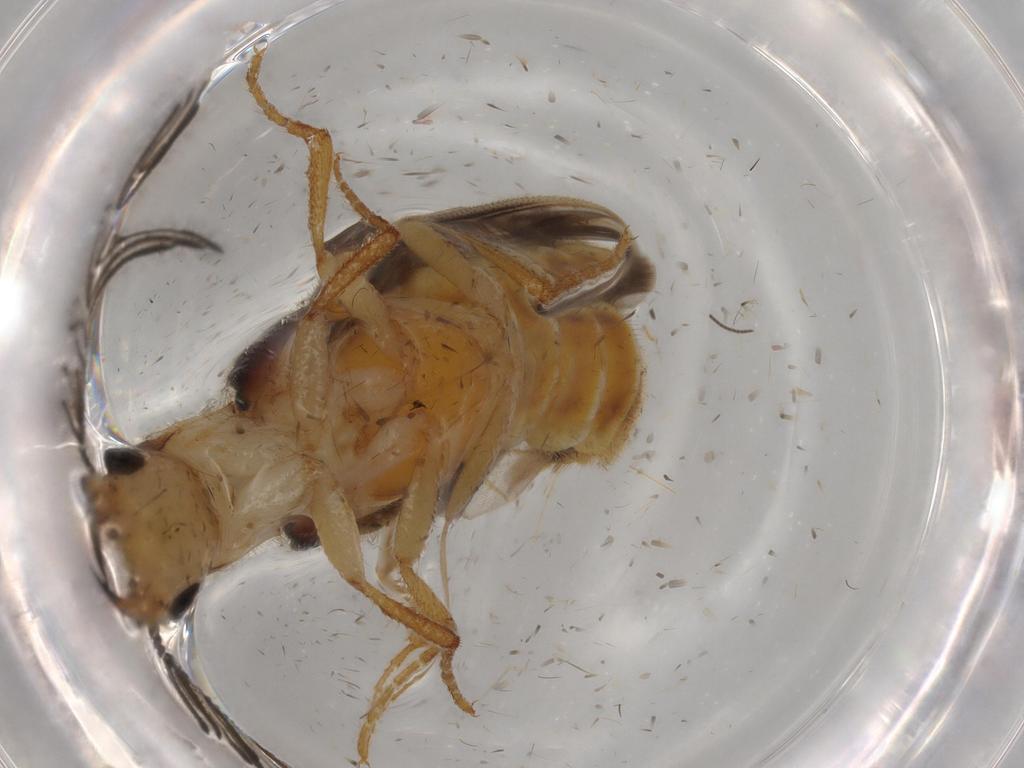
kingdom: Animalia
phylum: Arthropoda
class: Insecta
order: Coleoptera
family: Phengodidae
